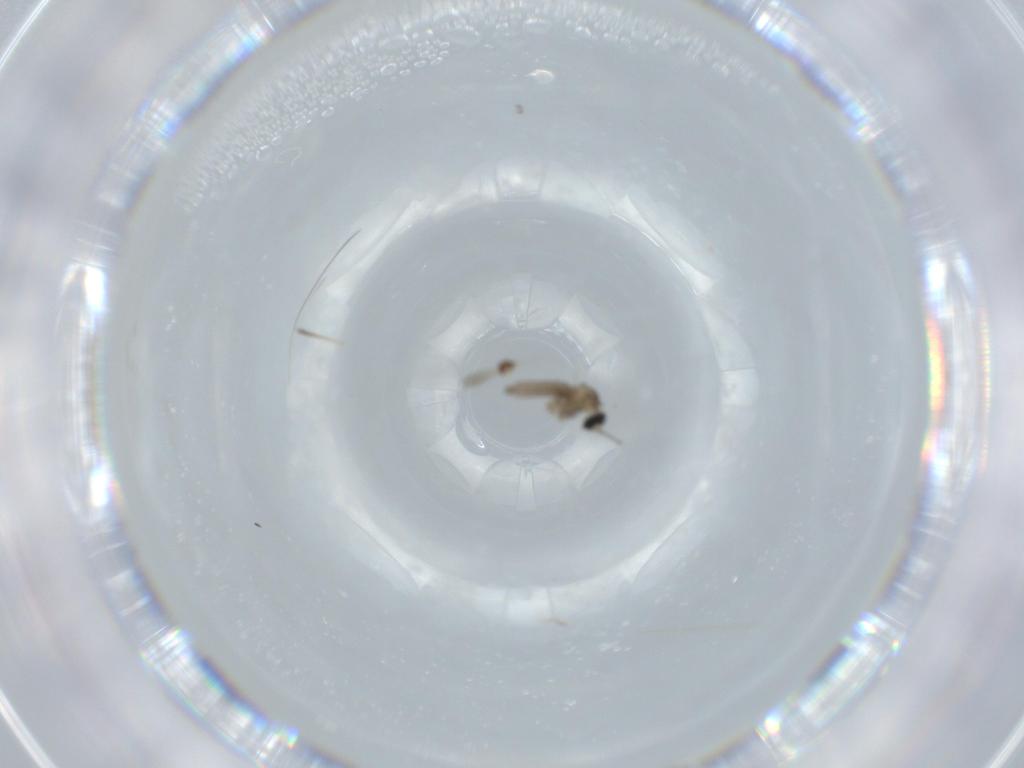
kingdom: Animalia
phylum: Arthropoda
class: Insecta
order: Diptera
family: Cecidomyiidae
